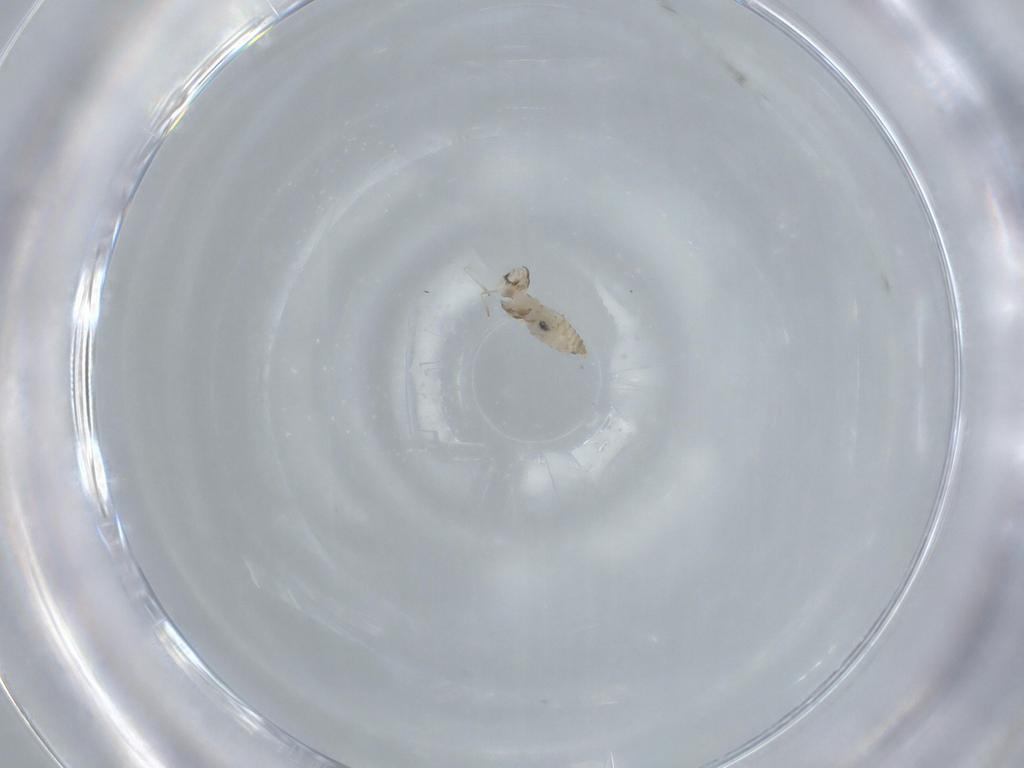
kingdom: Animalia
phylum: Arthropoda
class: Insecta
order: Diptera
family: Cecidomyiidae
